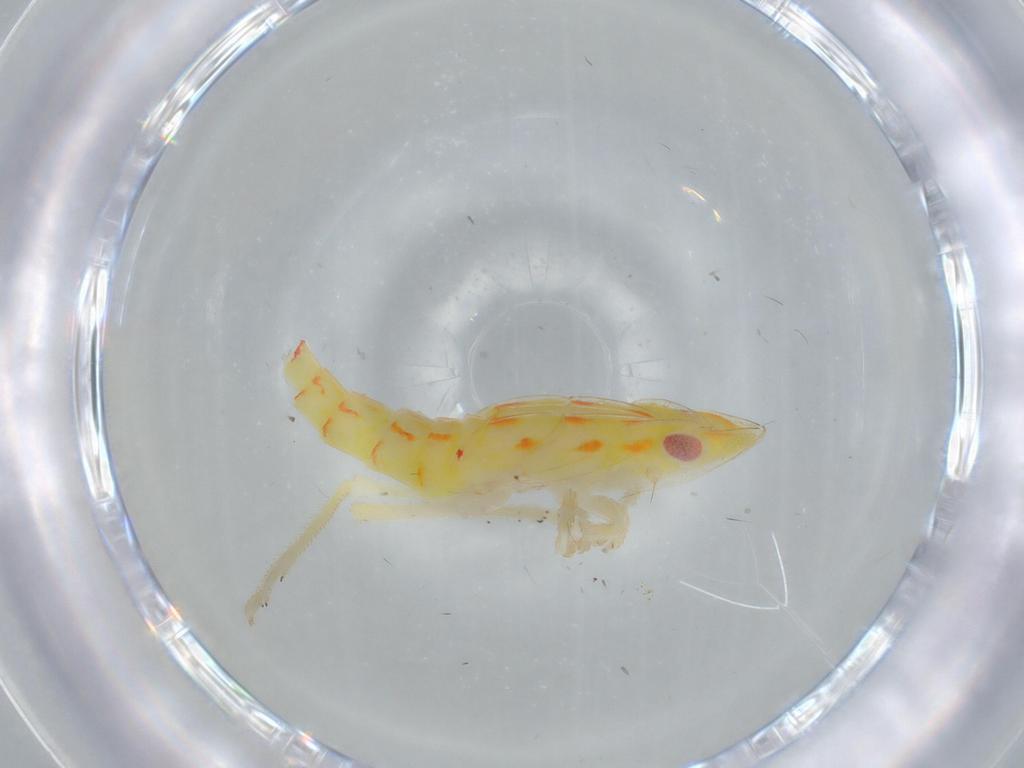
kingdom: Animalia
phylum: Arthropoda
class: Insecta
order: Hemiptera
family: Tropiduchidae
